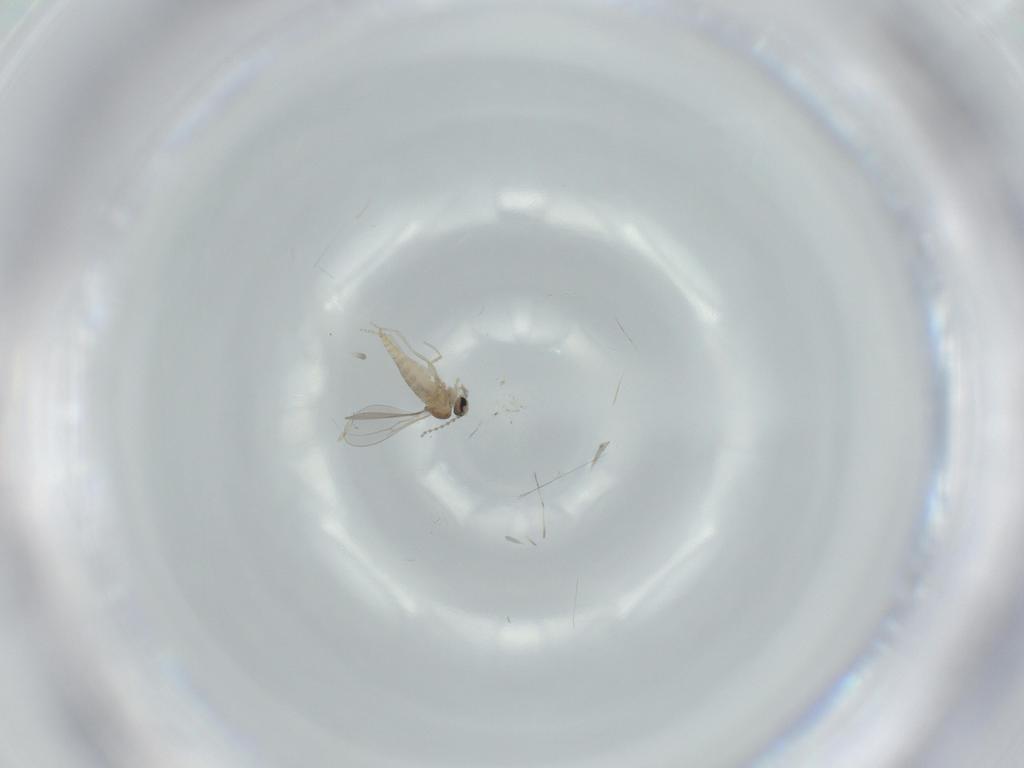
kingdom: Animalia
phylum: Arthropoda
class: Insecta
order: Diptera
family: Cecidomyiidae
